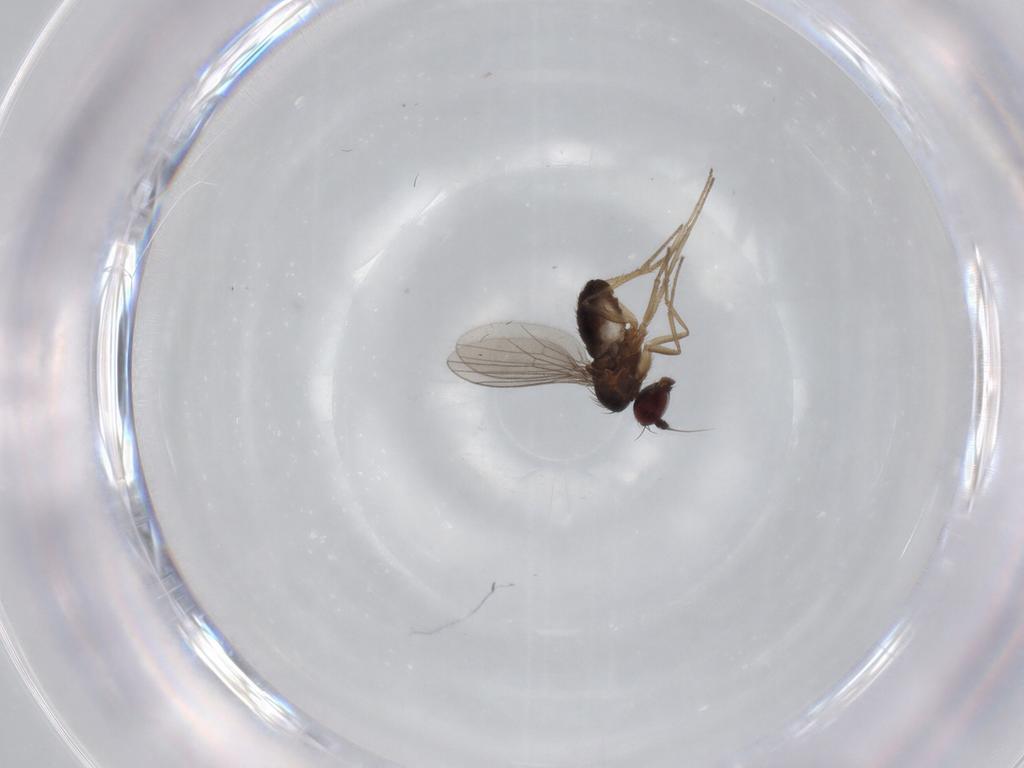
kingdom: Animalia
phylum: Arthropoda
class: Insecta
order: Diptera
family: Dolichopodidae
